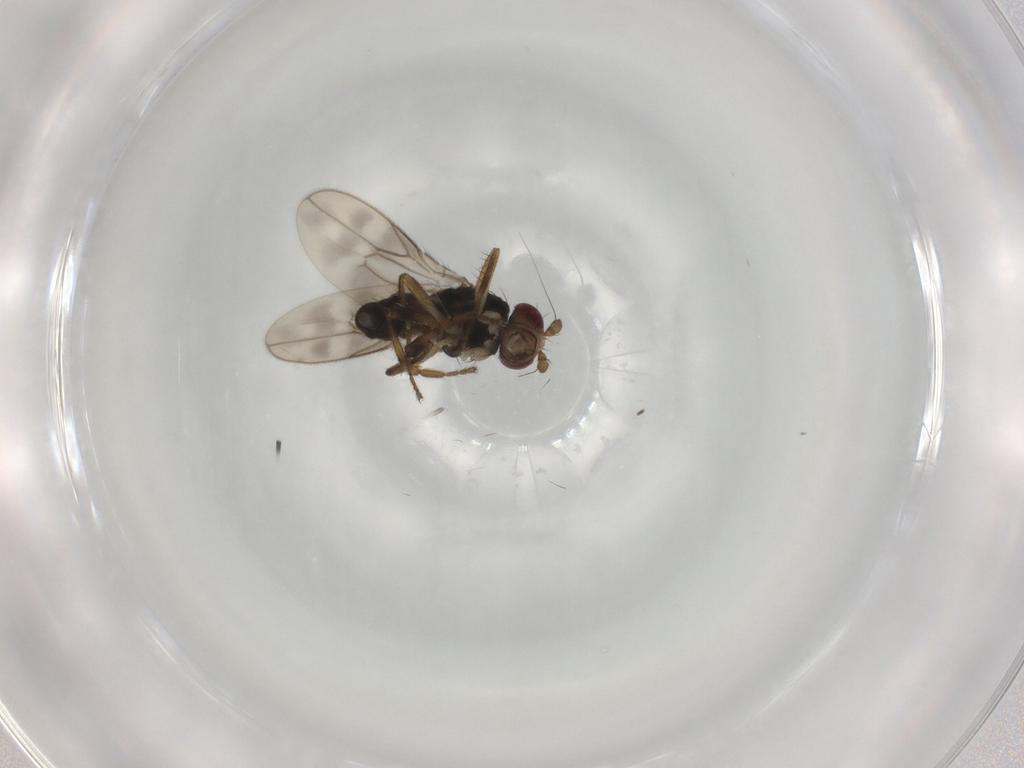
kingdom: Animalia
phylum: Arthropoda
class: Insecta
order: Diptera
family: Sphaeroceridae
